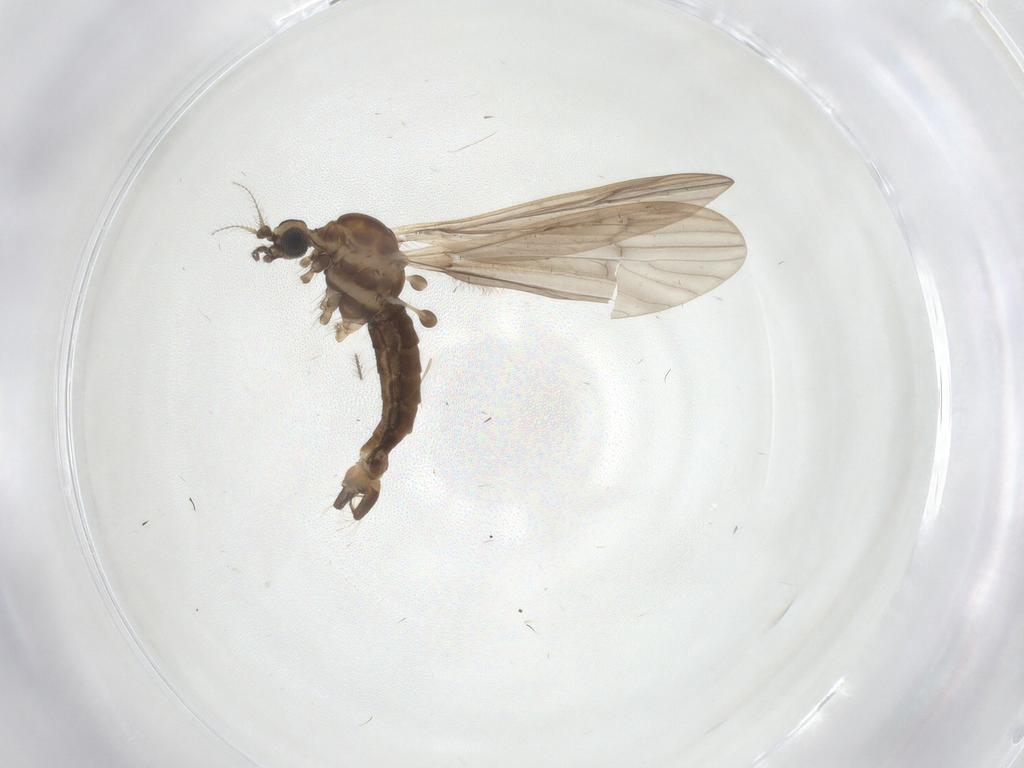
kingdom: Animalia
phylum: Arthropoda
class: Insecta
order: Diptera
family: Limoniidae
